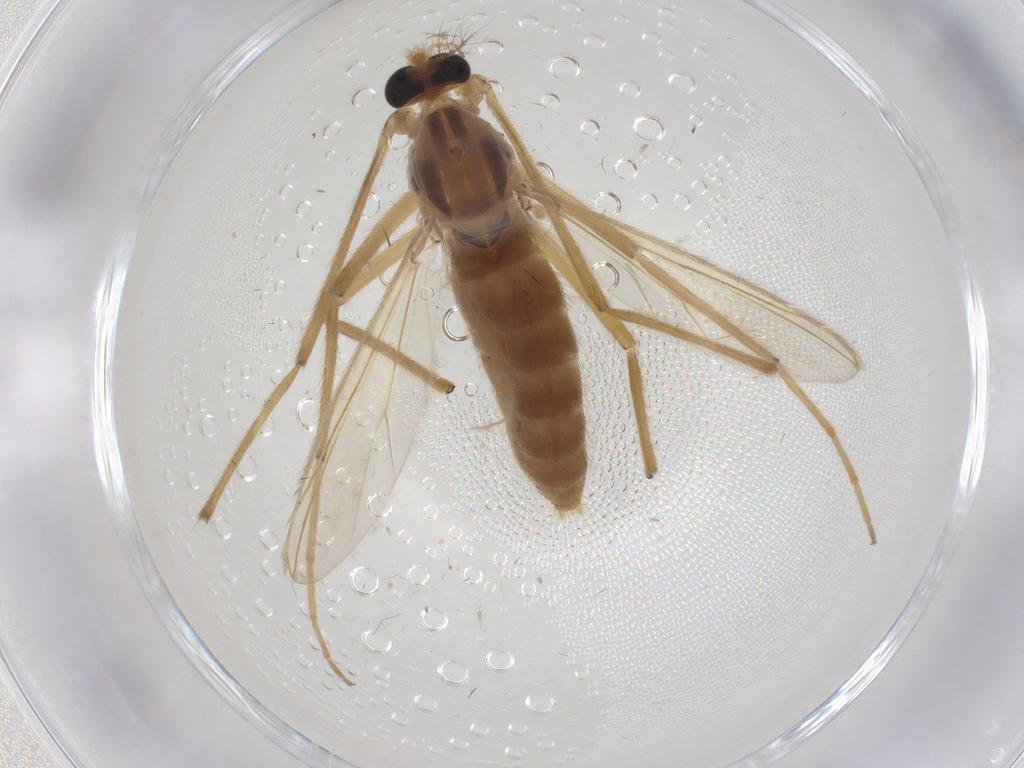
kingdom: Animalia
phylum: Arthropoda
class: Insecta
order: Diptera
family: Chironomidae
